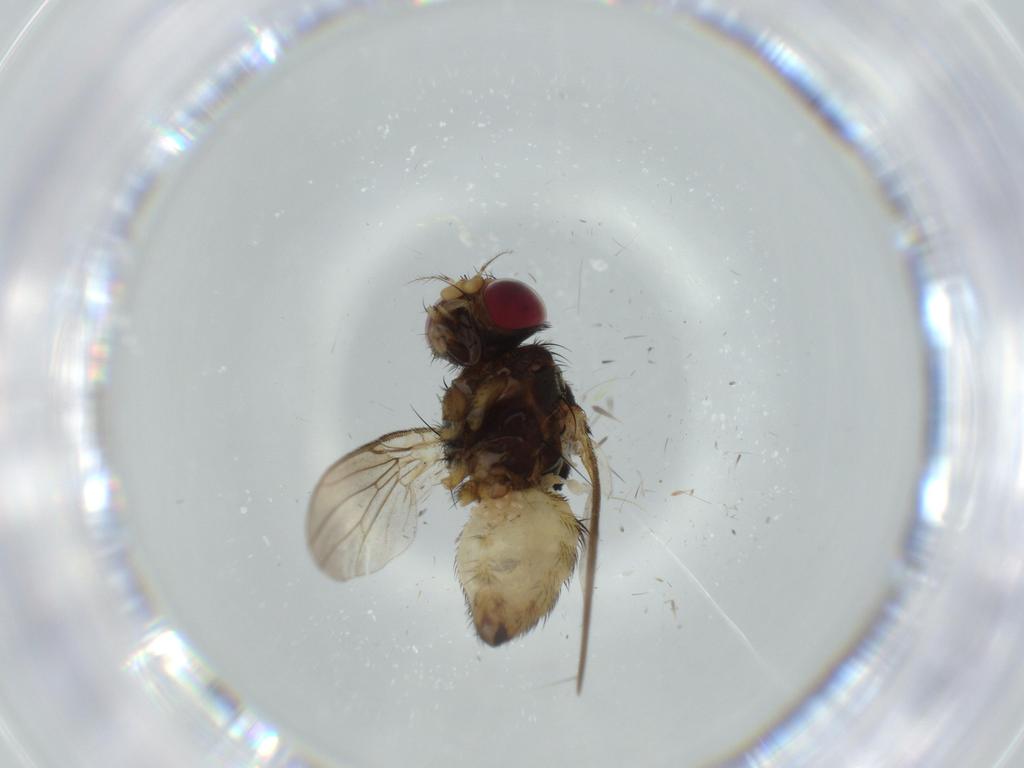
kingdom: Animalia
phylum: Arthropoda
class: Insecta
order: Diptera
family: Anthomyiidae
